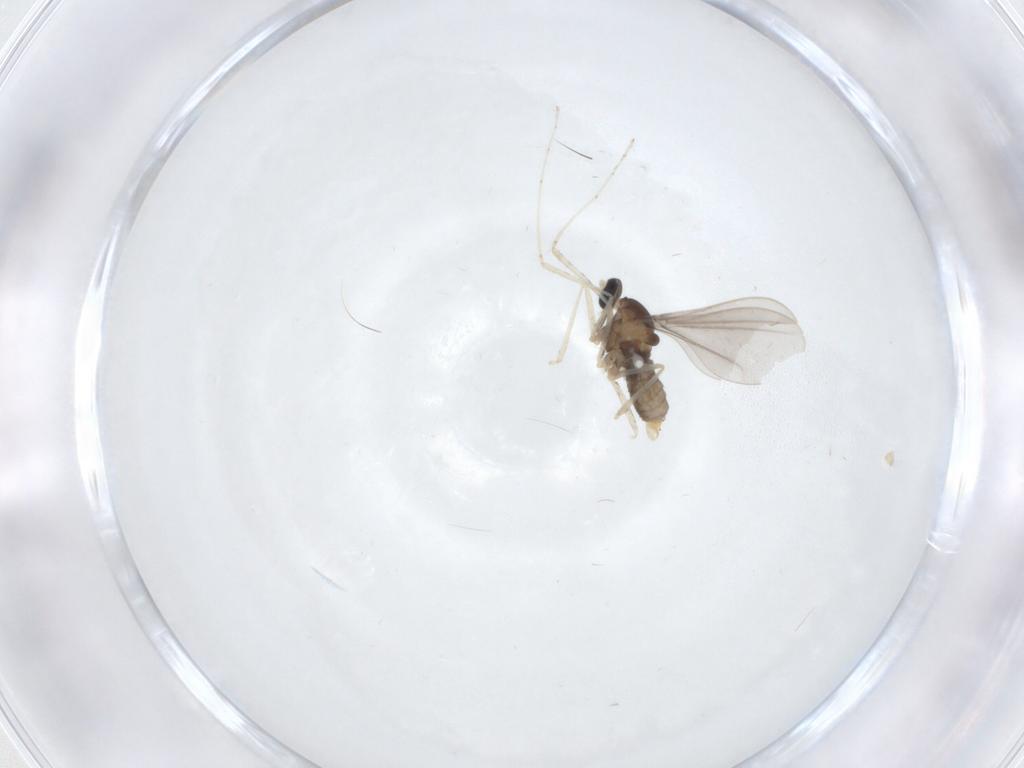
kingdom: Animalia
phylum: Arthropoda
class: Insecta
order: Diptera
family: Cecidomyiidae
